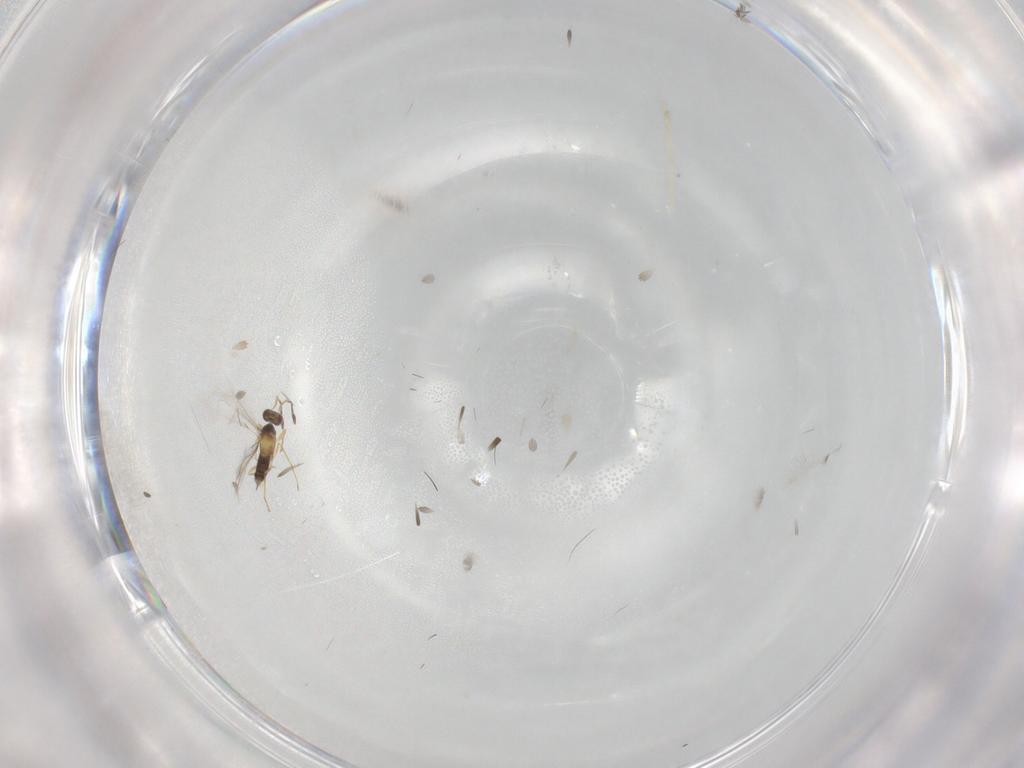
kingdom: Animalia
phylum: Arthropoda
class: Insecta
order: Hymenoptera
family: Mymaridae
